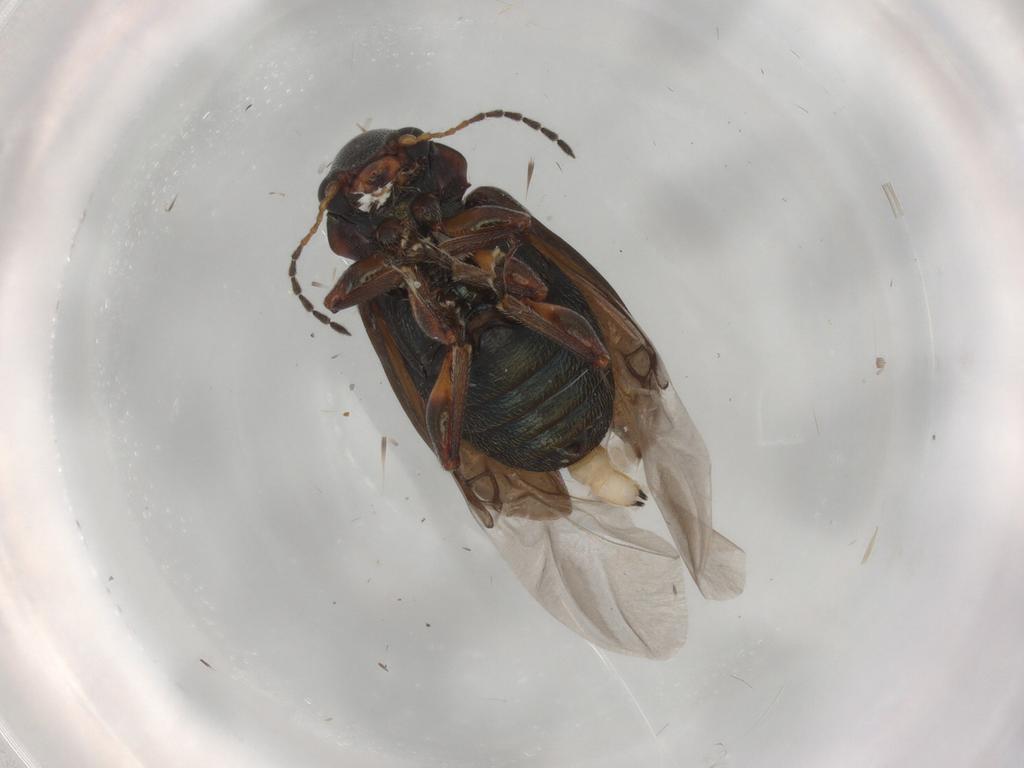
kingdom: Animalia
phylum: Arthropoda
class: Insecta
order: Coleoptera
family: Chrysomelidae
